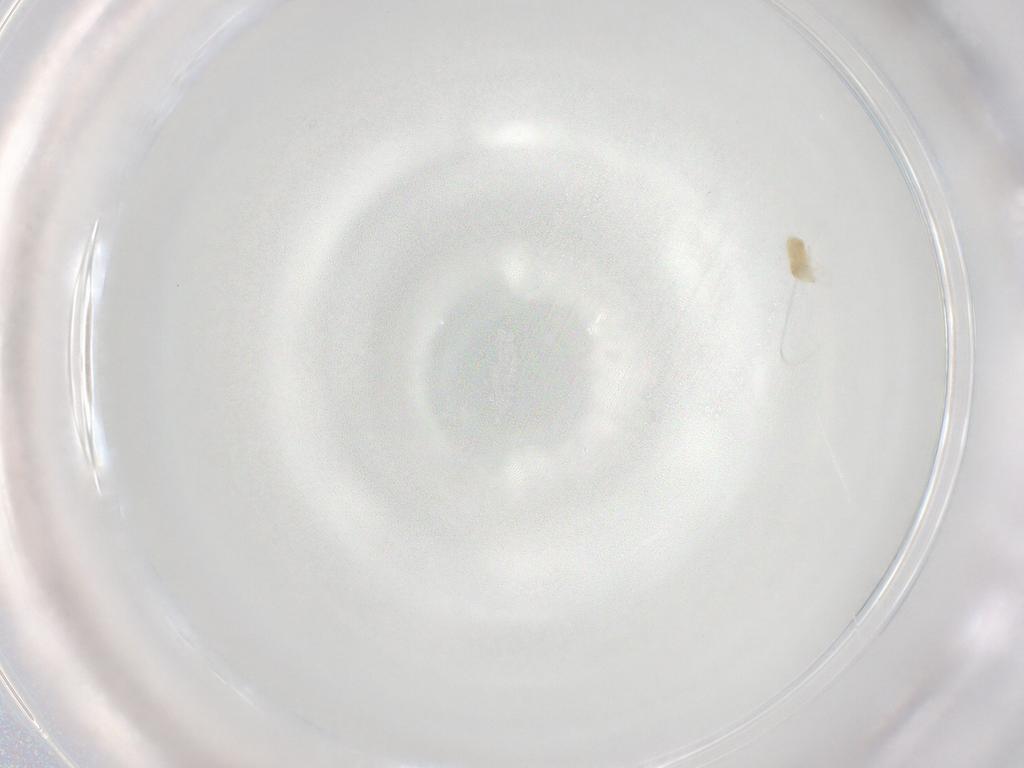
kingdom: Animalia
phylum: Arthropoda
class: Arachnida
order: Trombidiformes
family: Eupodidae
